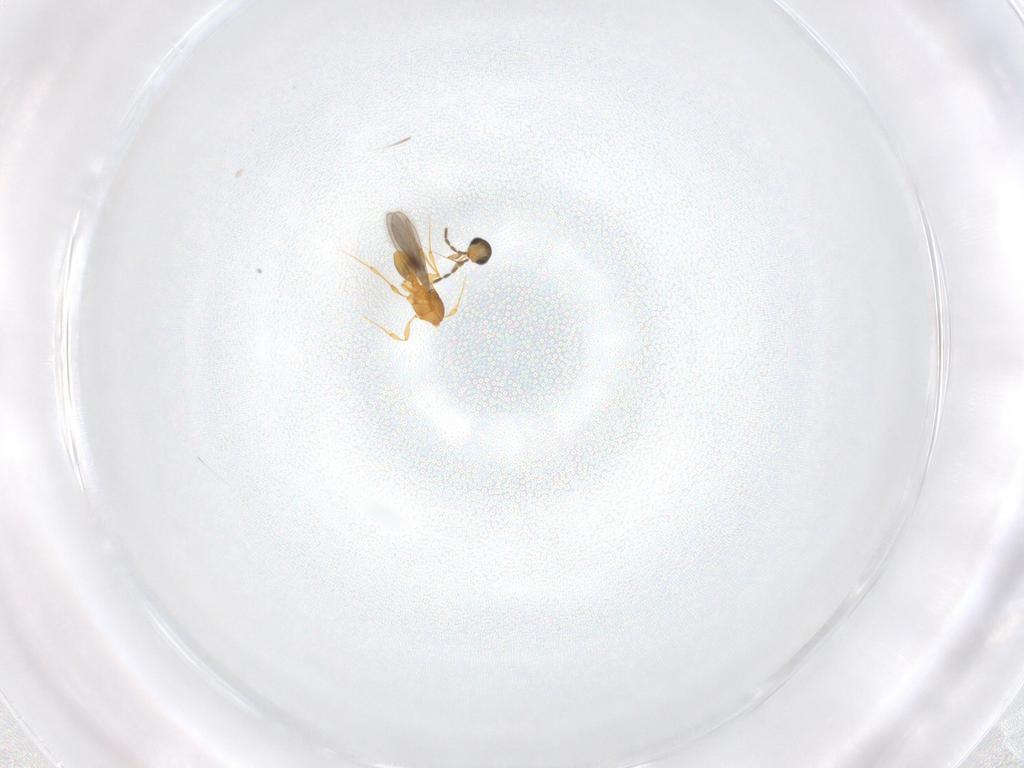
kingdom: Animalia
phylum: Arthropoda
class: Insecta
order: Hymenoptera
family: Platygastridae
